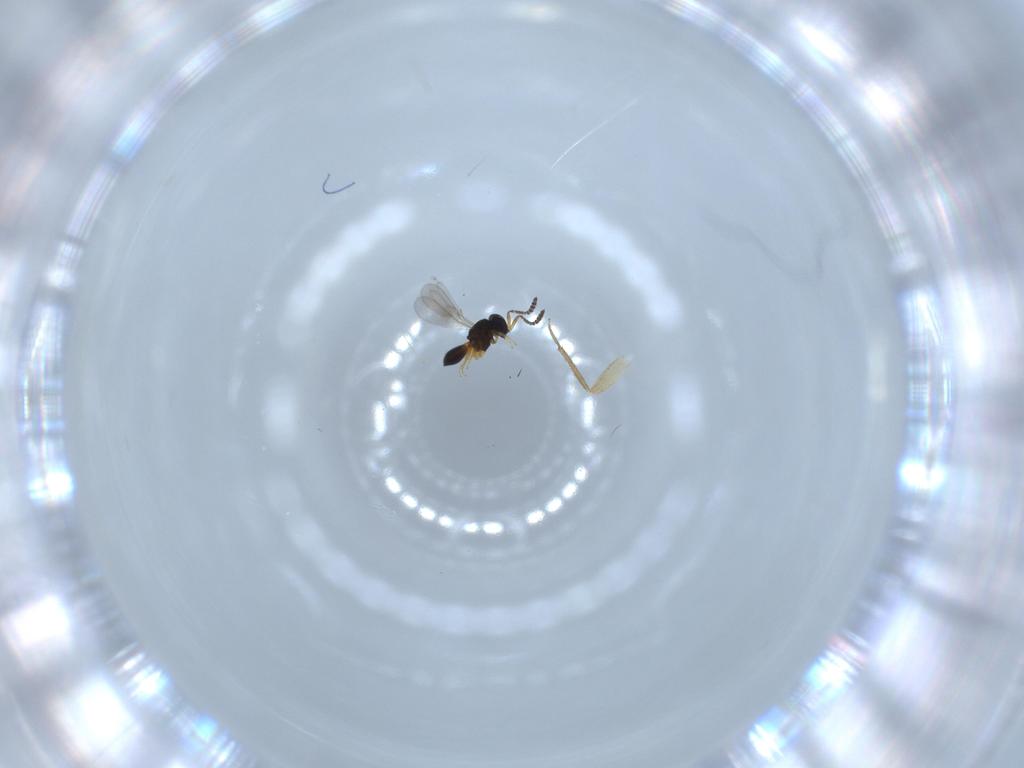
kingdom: Animalia
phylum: Arthropoda
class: Insecta
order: Hymenoptera
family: Scelionidae
